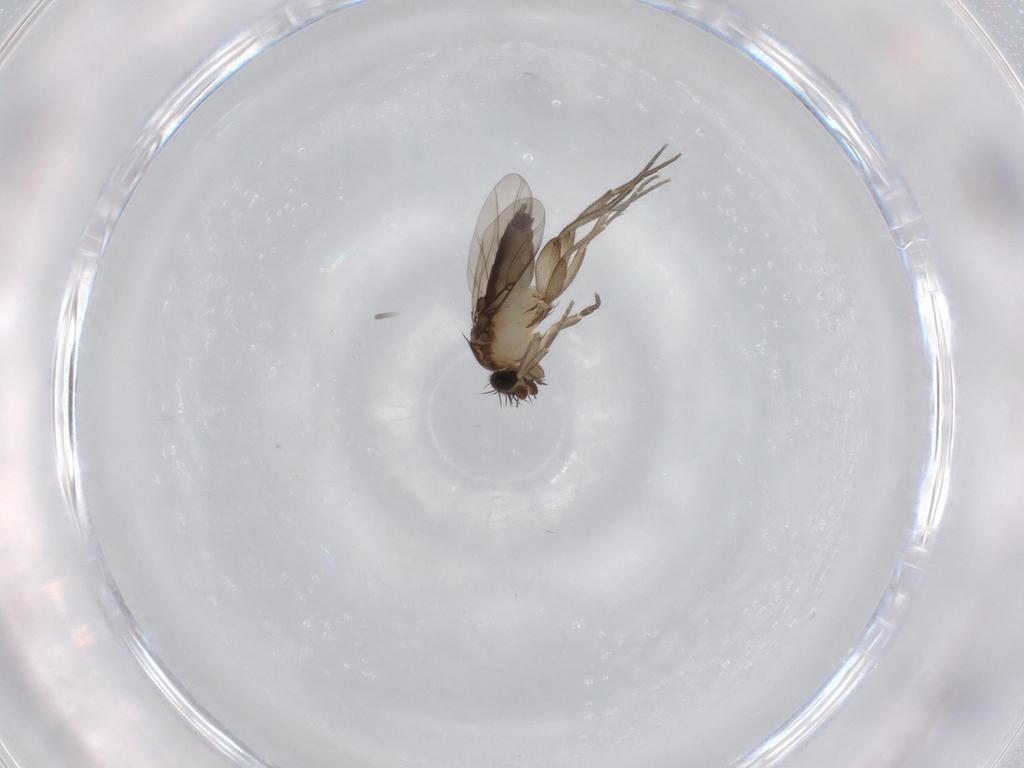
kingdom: Animalia
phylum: Arthropoda
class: Insecta
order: Diptera
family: Phoridae
